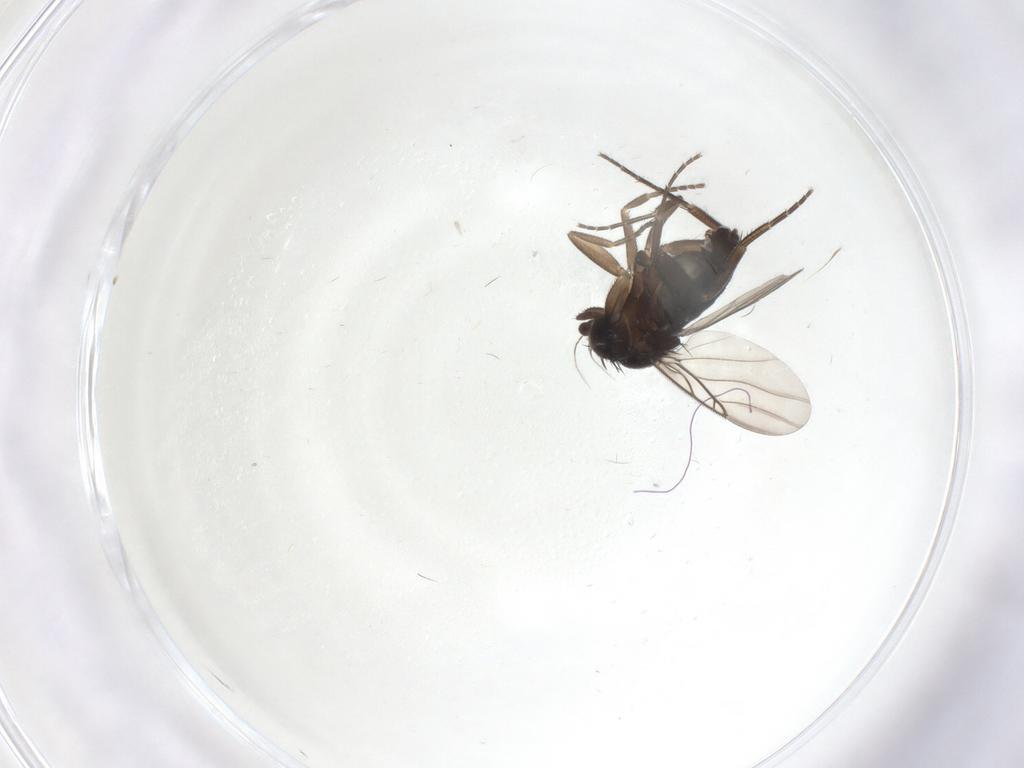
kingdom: Animalia
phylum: Arthropoda
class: Insecta
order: Diptera
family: Phoridae
